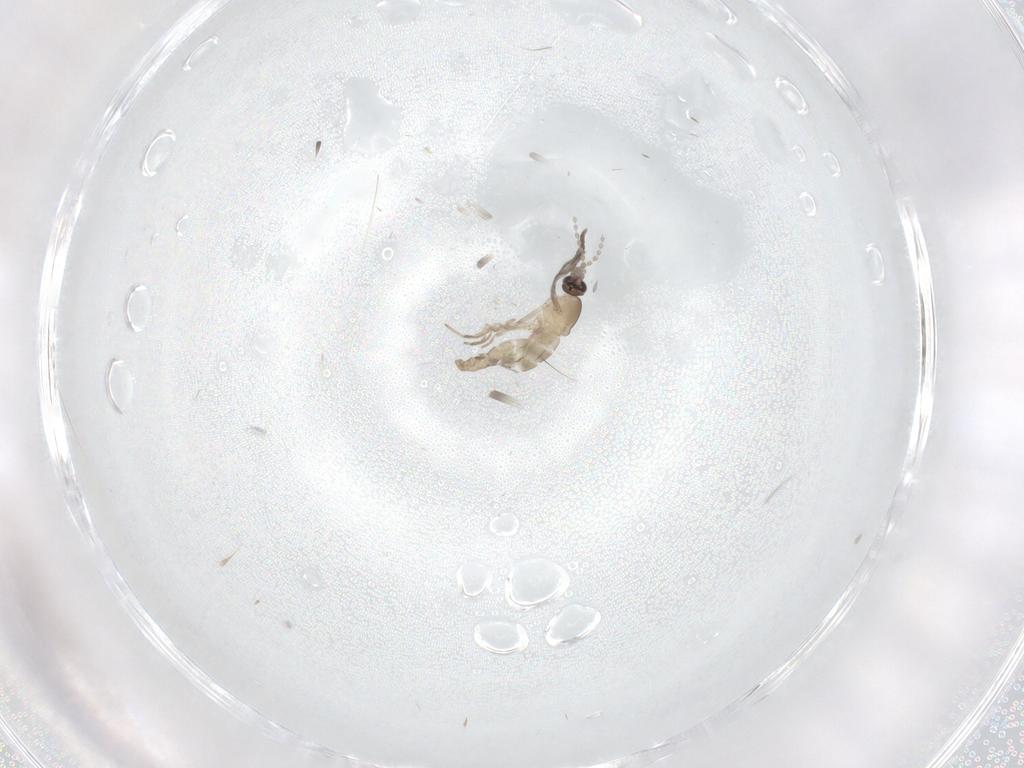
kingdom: Animalia
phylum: Arthropoda
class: Insecta
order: Diptera
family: Cecidomyiidae
